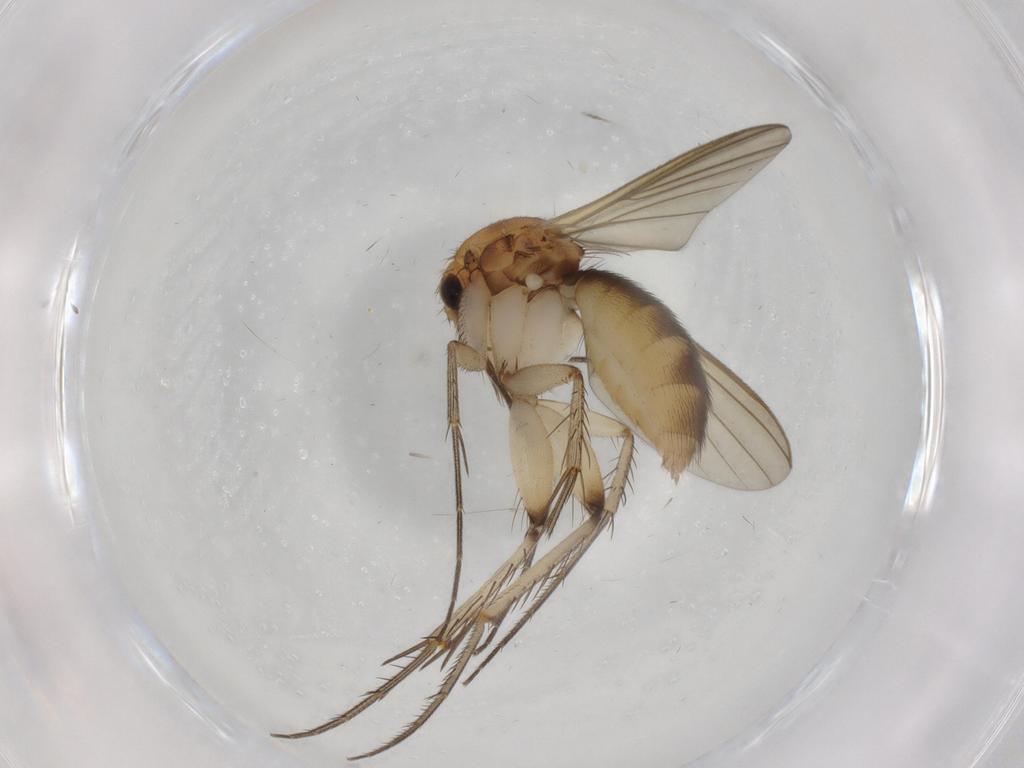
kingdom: Animalia
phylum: Arthropoda
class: Insecta
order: Diptera
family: Mycetophilidae
